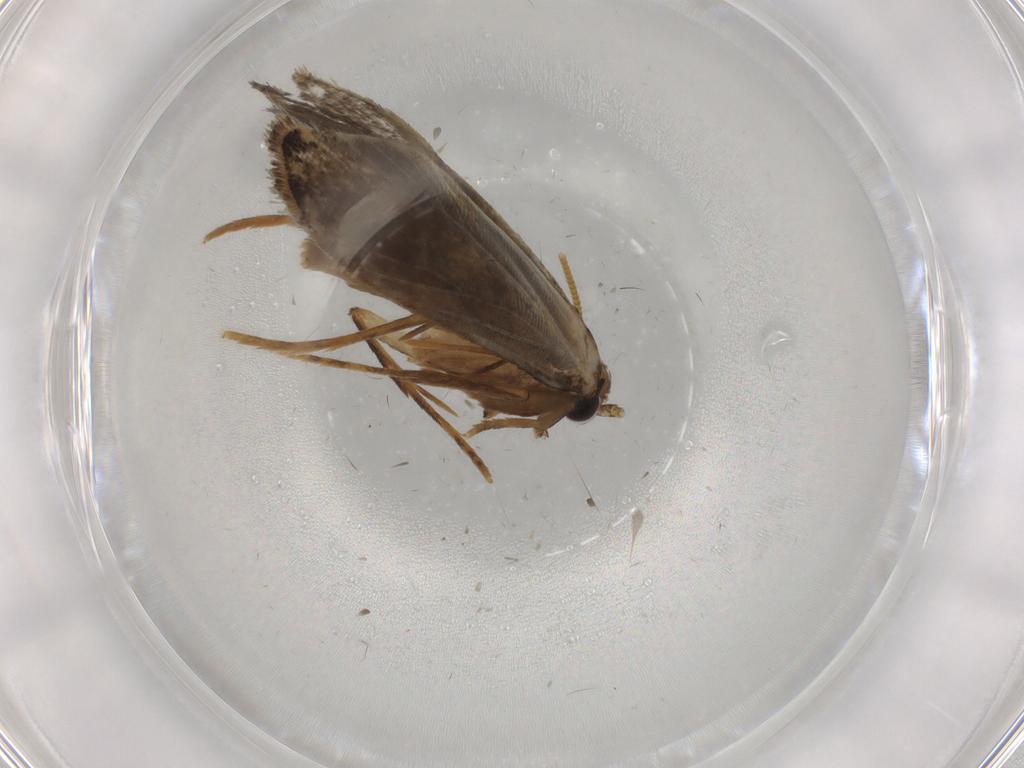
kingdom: Animalia
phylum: Arthropoda
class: Insecta
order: Lepidoptera
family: Tineidae
